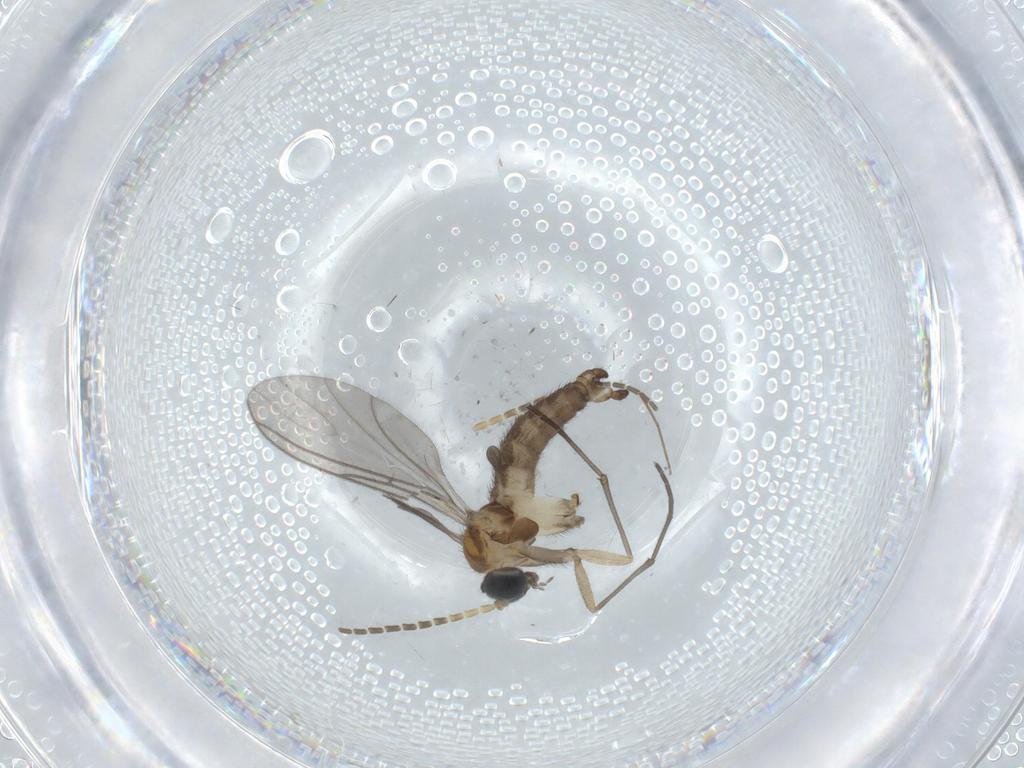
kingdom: Animalia
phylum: Arthropoda
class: Insecta
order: Diptera
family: Sciaridae
